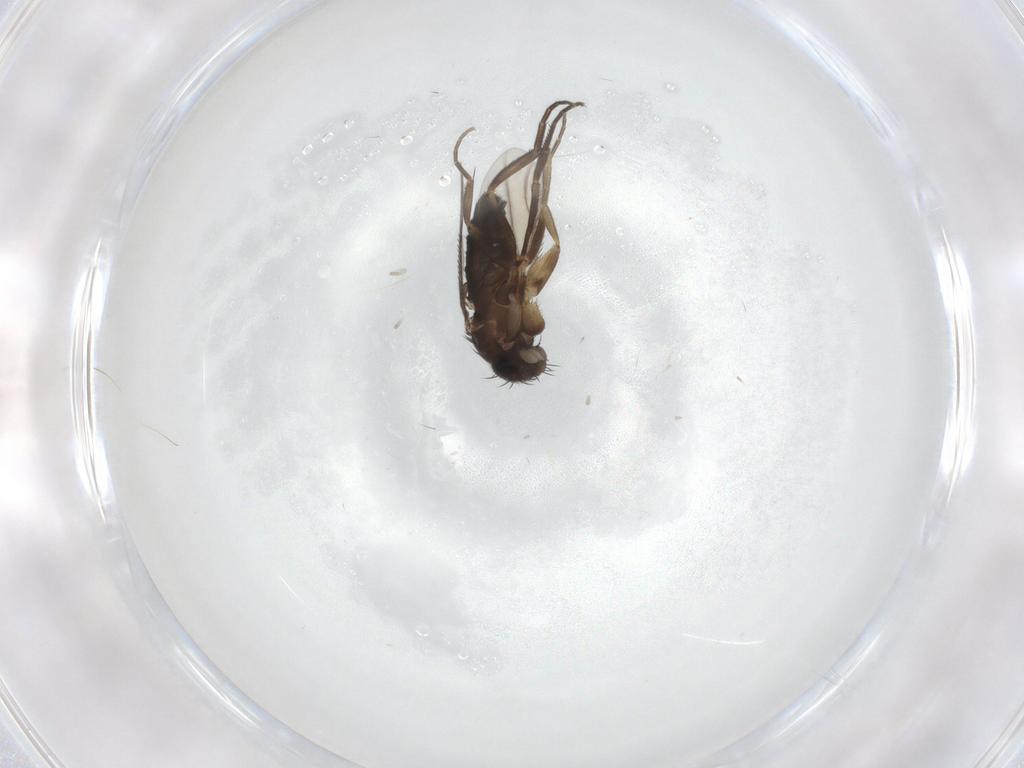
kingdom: Animalia
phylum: Arthropoda
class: Insecta
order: Diptera
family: Phoridae
